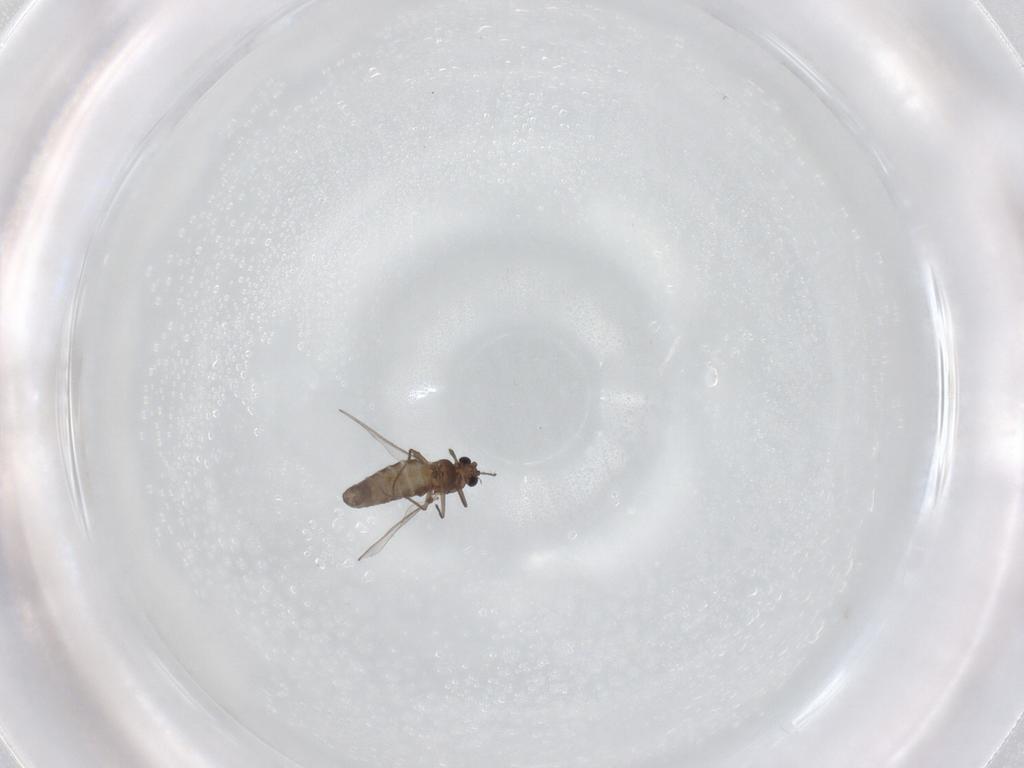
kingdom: Animalia
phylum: Arthropoda
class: Insecta
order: Diptera
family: Chironomidae
